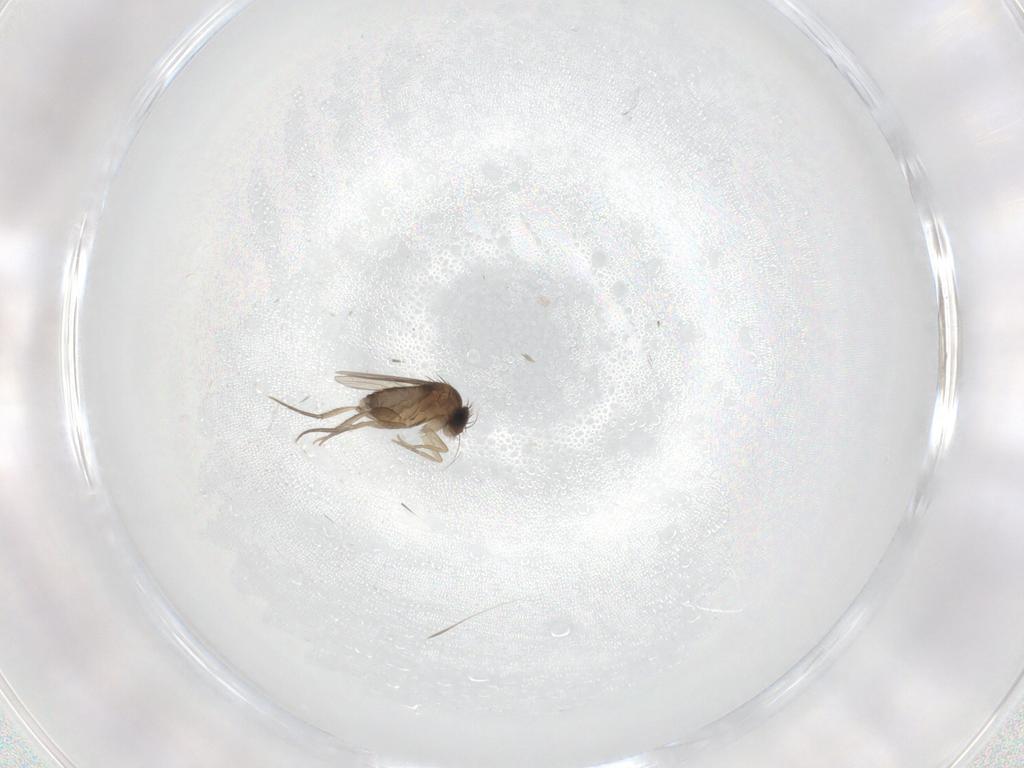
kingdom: Animalia
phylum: Arthropoda
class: Insecta
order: Diptera
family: Phoridae
